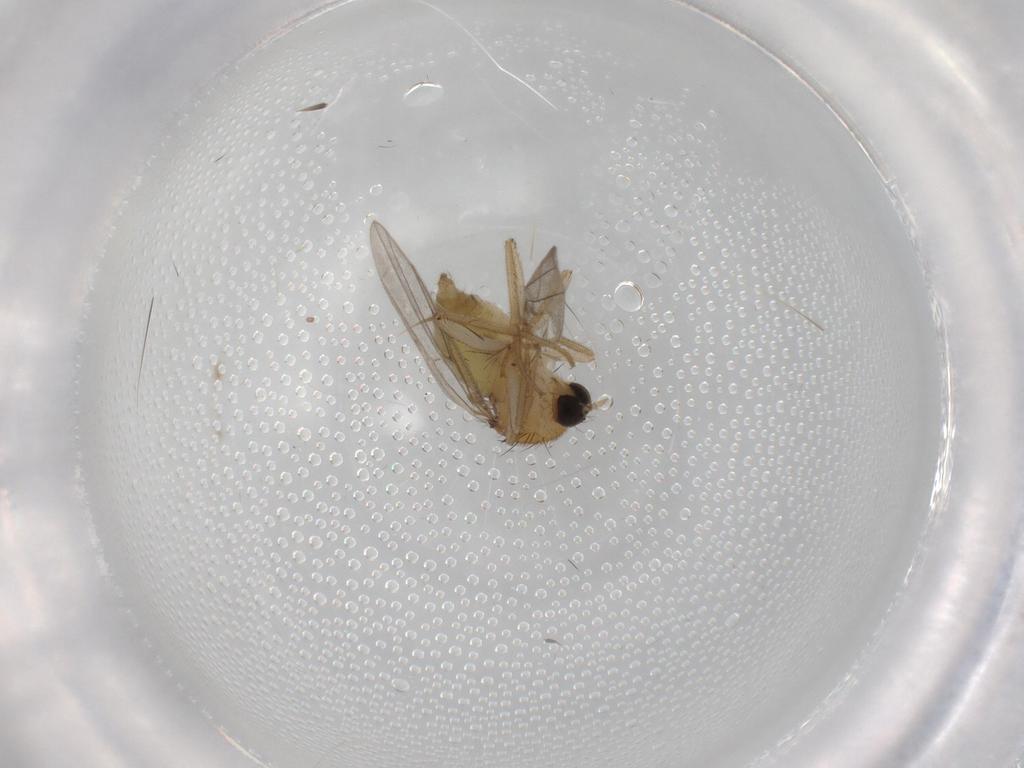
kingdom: Animalia
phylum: Arthropoda
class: Insecta
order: Diptera
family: Hybotidae
